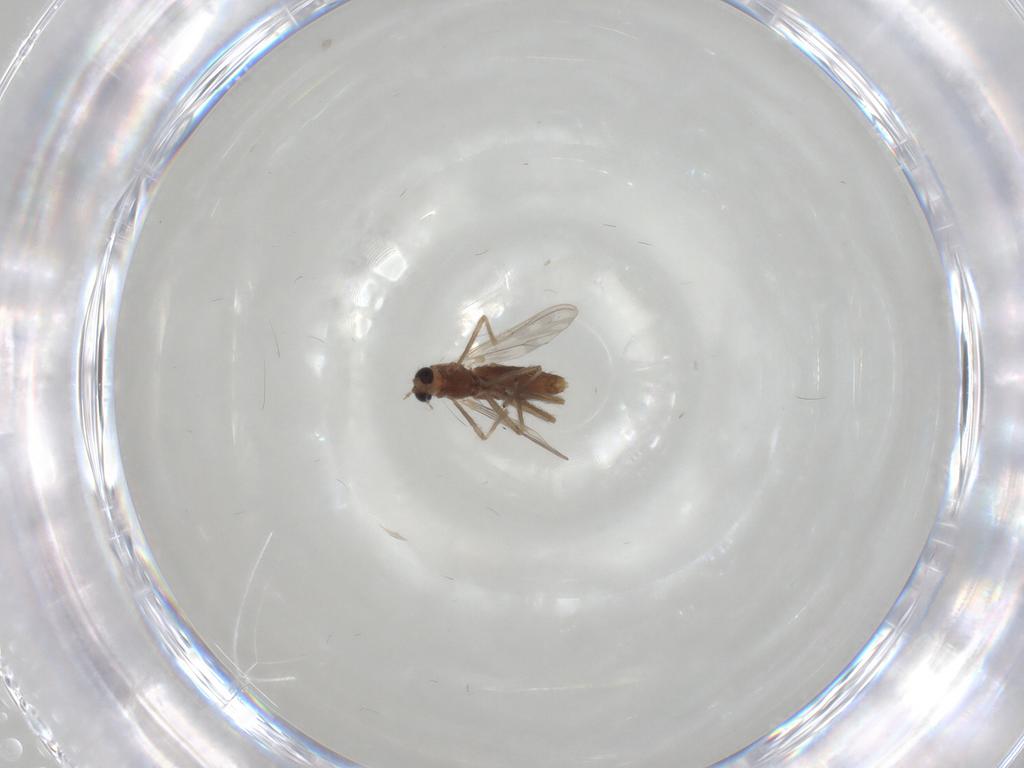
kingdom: Animalia
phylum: Arthropoda
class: Insecta
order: Diptera
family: Chironomidae
